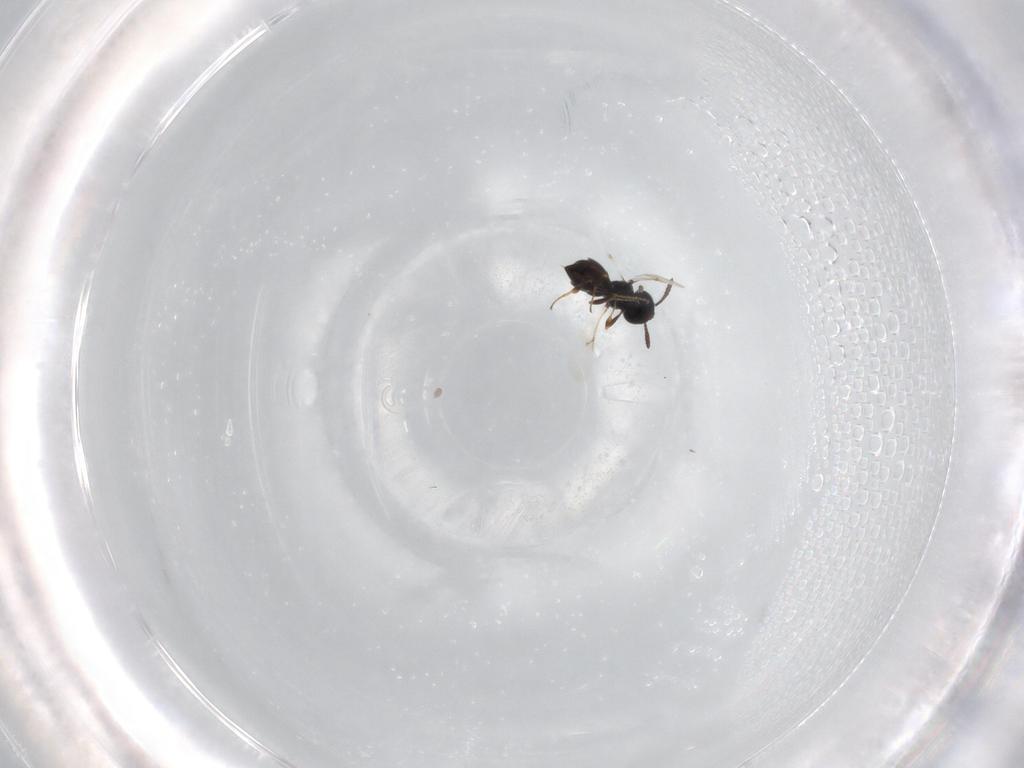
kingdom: Animalia
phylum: Arthropoda
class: Insecta
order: Hymenoptera
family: Scelionidae
